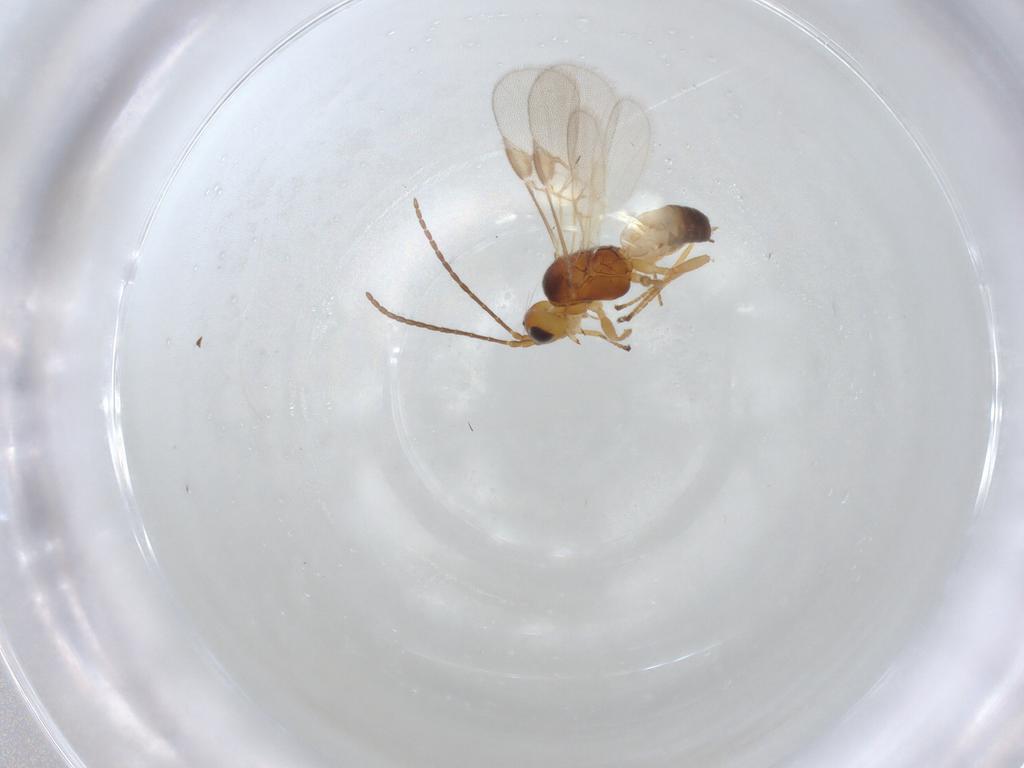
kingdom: Animalia
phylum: Arthropoda
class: Insecta
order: Hymenoptera
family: Braconidae
